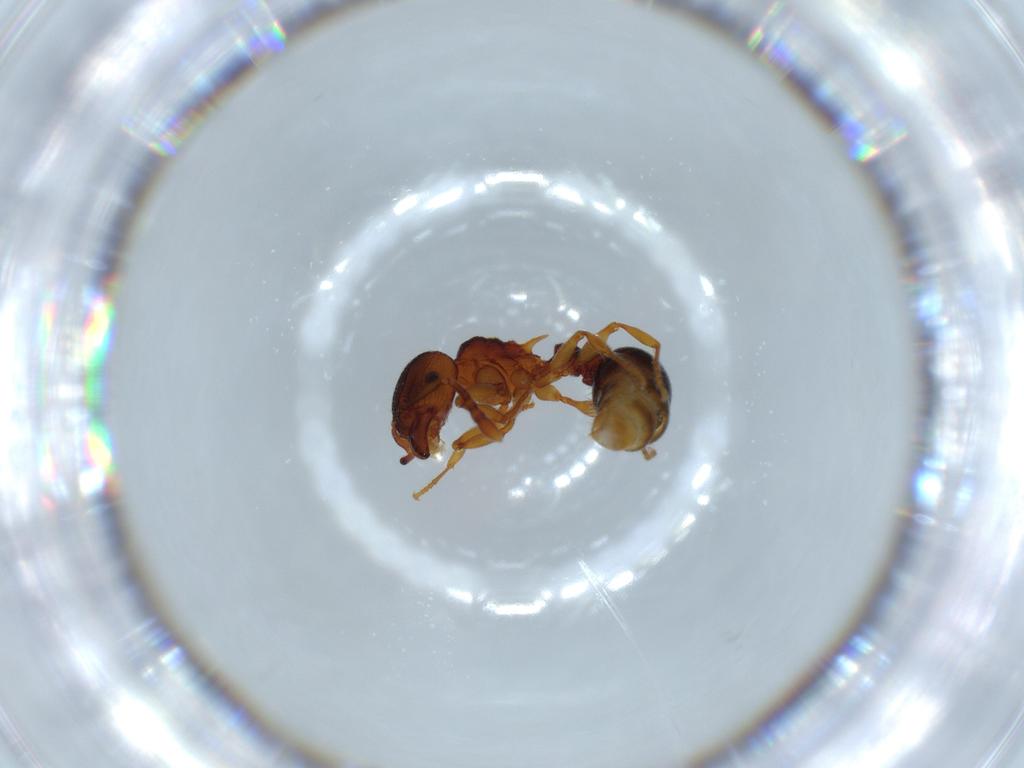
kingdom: Animalia
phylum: Arthropoda
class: Insecta
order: Hymenoptera
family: Formicidae
